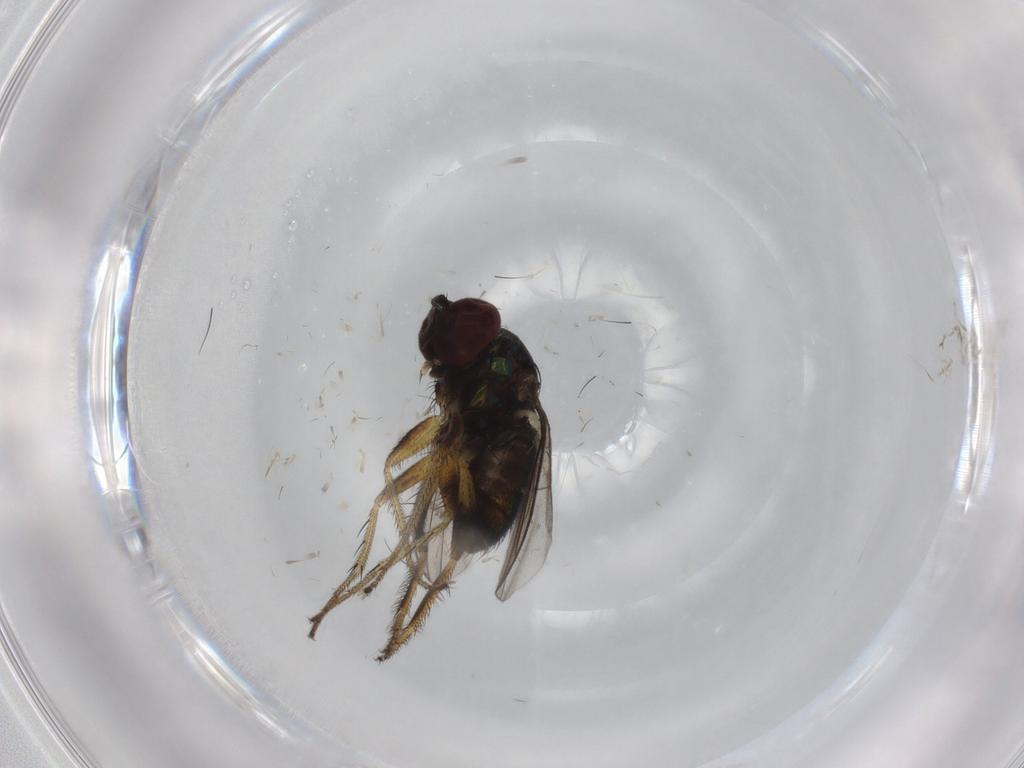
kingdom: Animalia
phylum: Arthropoda
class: Insecta
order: Diptera
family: Dolichopodidae
